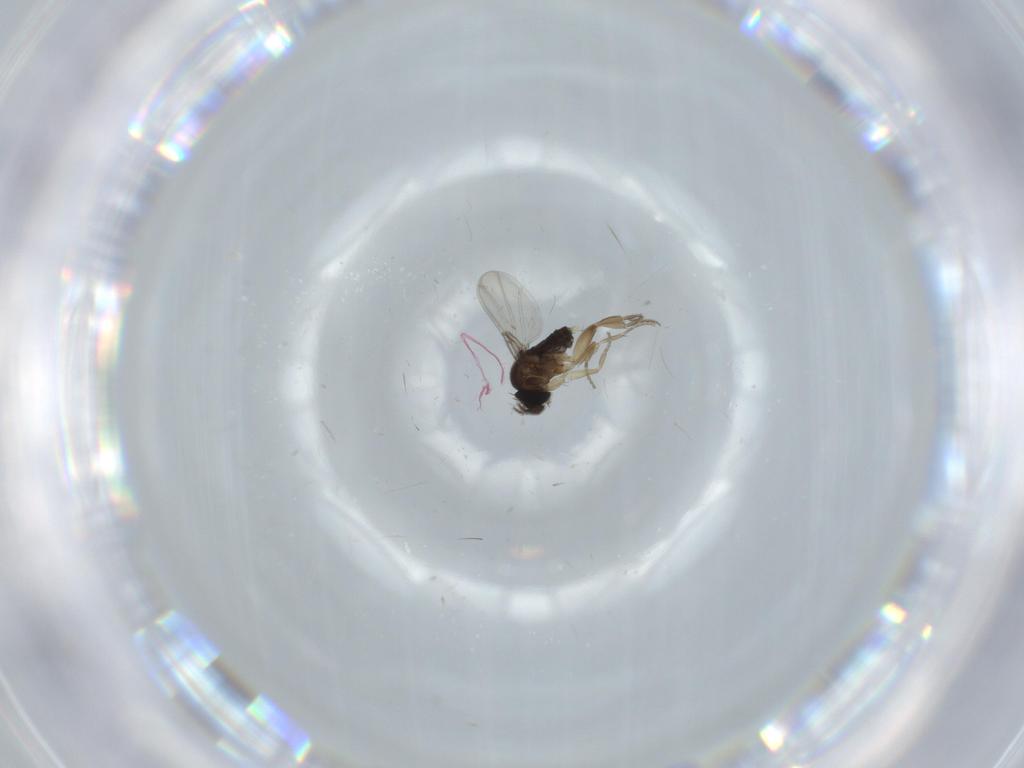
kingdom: Animalia
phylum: Arthropoda
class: Insecta
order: Diptera
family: Phoridae
